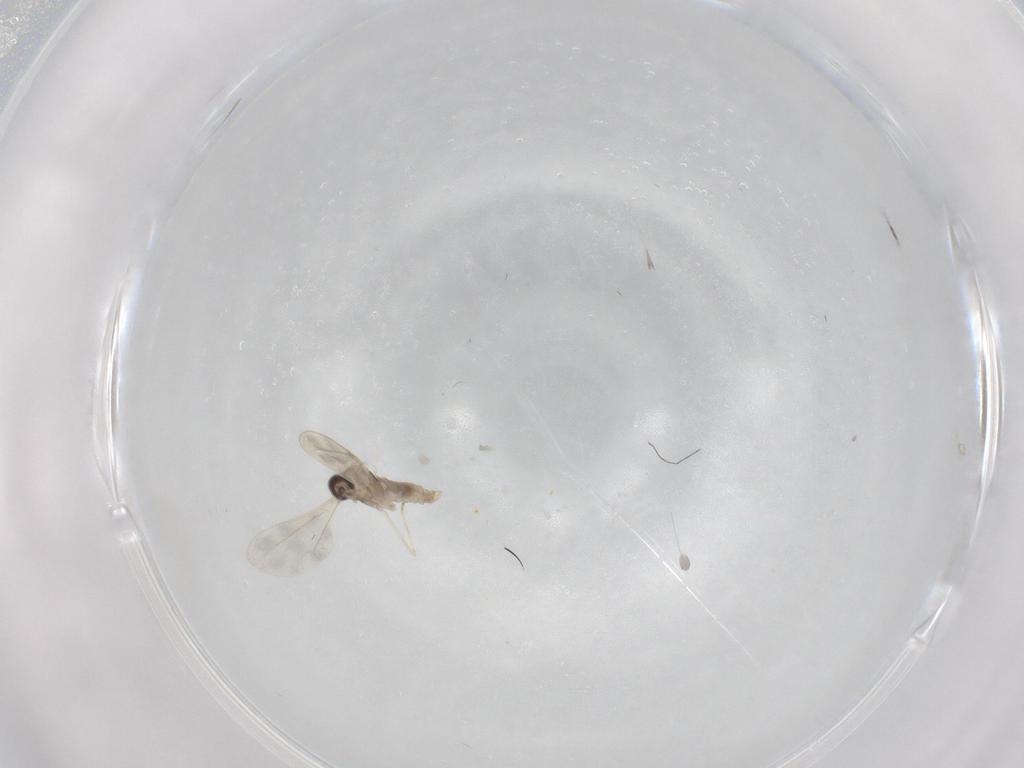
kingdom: Animalia
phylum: Arthropoda
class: Insecta
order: Diptera
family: Cecidomyiidae
